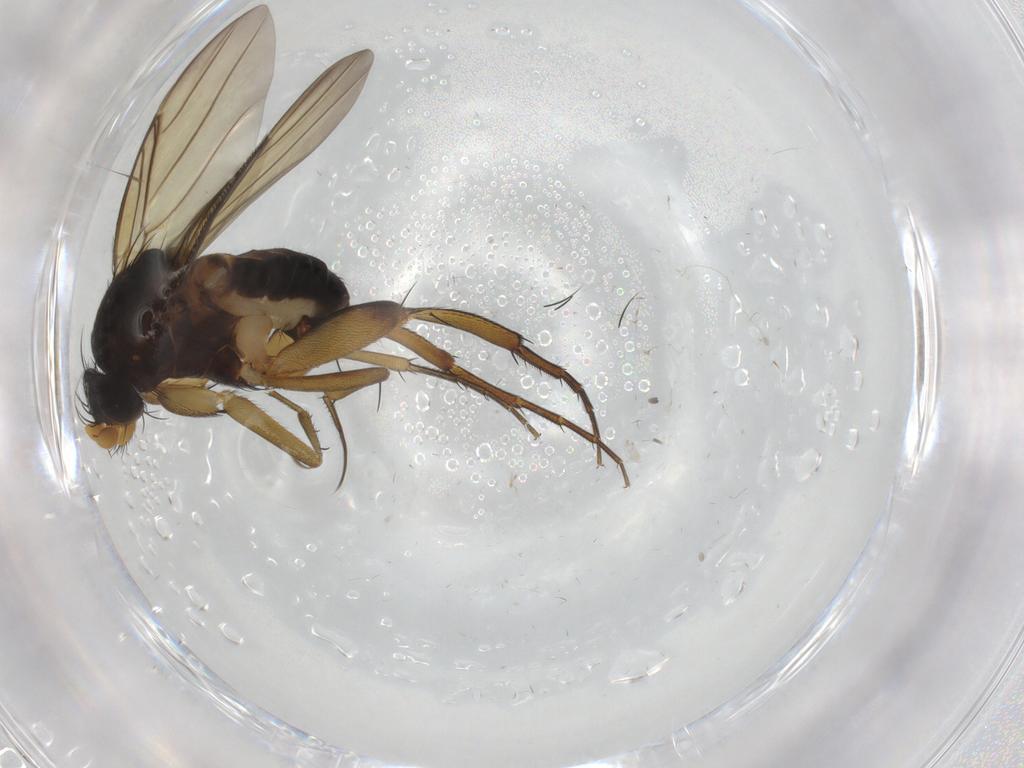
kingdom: Animalia
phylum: Arthropoda
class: Insecta
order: Diptera
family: Phoridae
